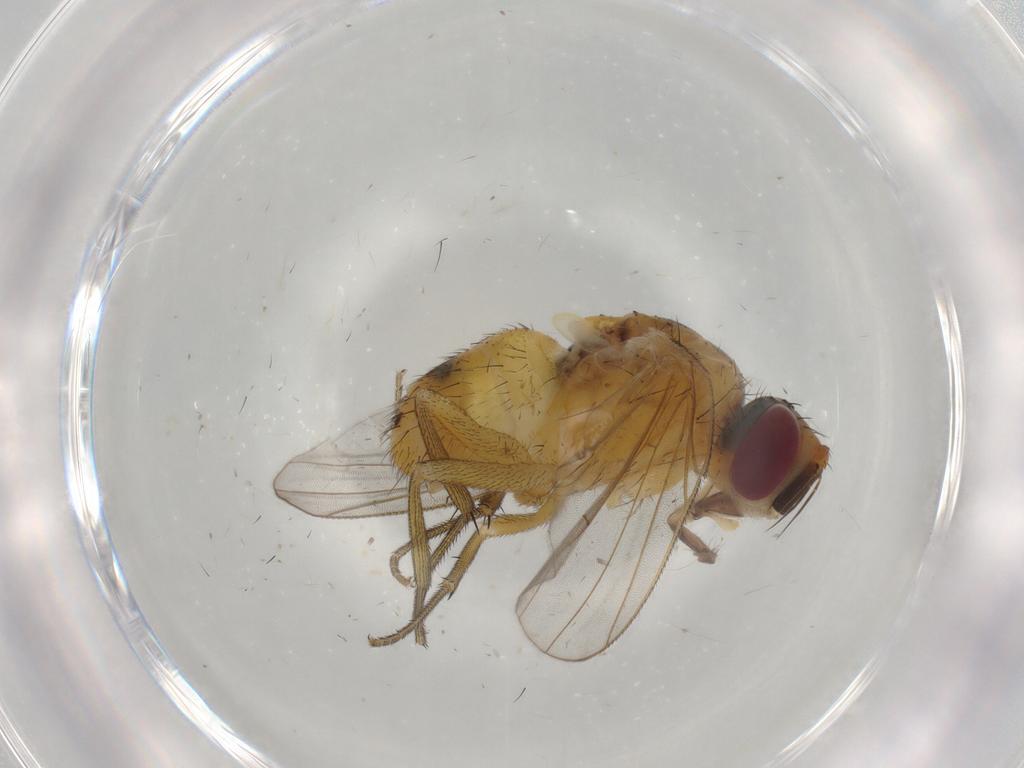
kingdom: Animalia
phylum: Arthropoda
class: Insecta
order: Diptera
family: Muscidae
